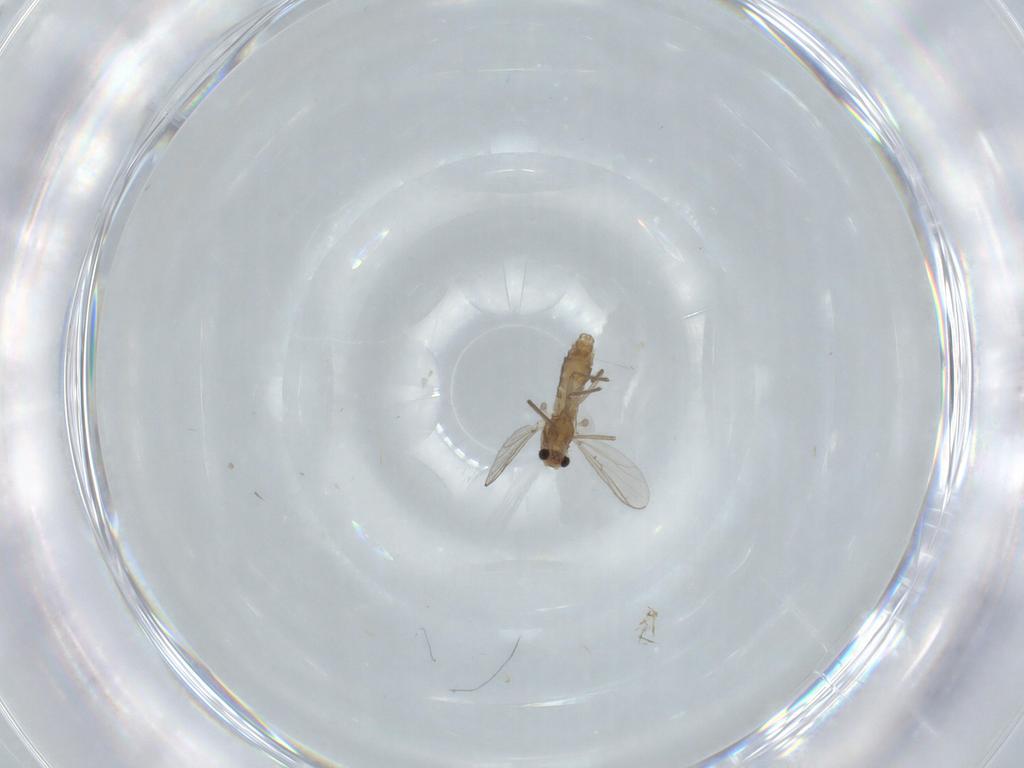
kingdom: Animalia
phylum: Arthropoda
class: Insecta
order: Diptera
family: Chironomidae
